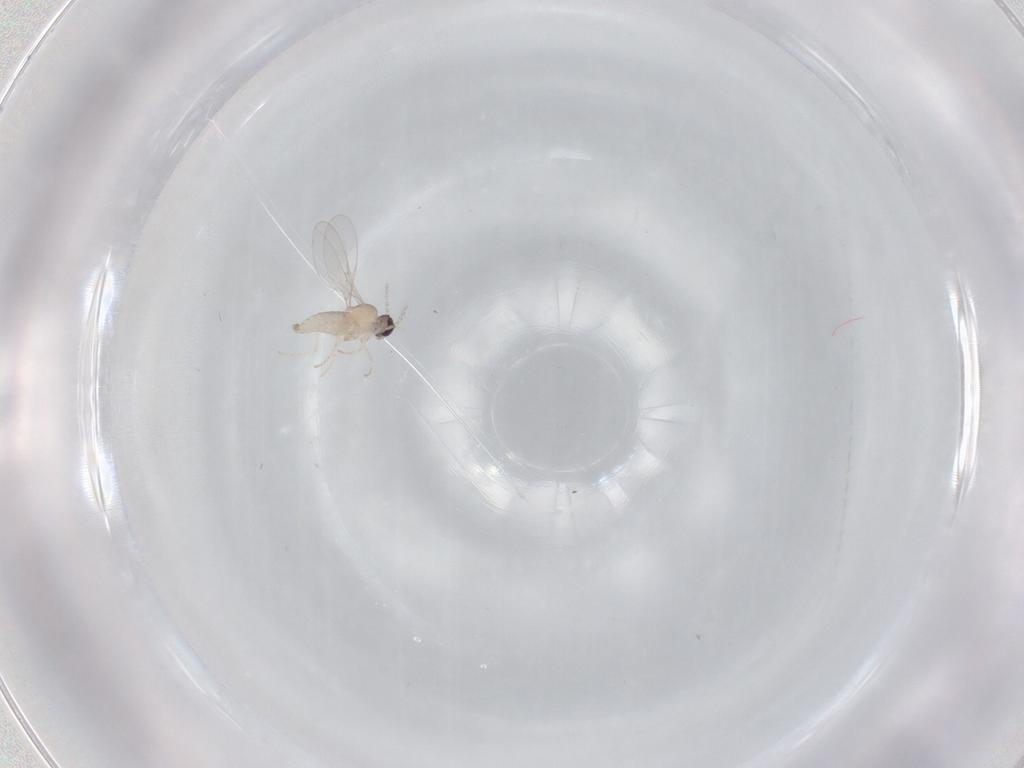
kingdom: Animalia
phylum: Arthropoda
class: Insecta
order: Diptera
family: Cecidomyiidae
